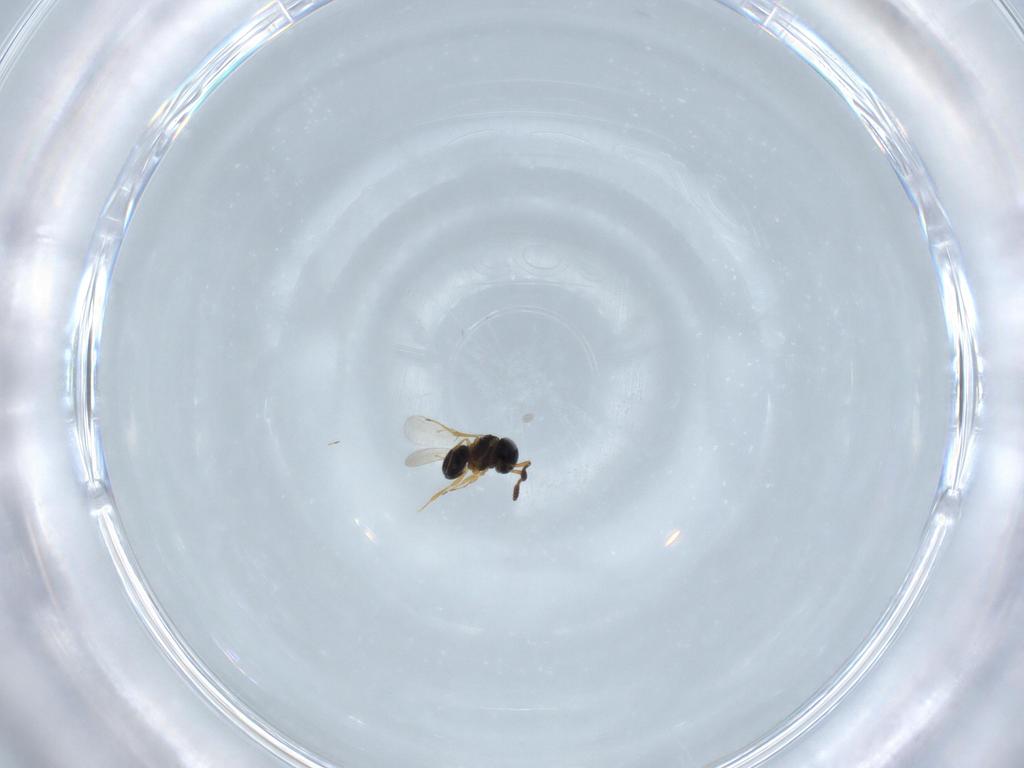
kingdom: Animalia
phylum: Arthropoda
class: Insecta
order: Hymenoptera
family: Scelionidae
